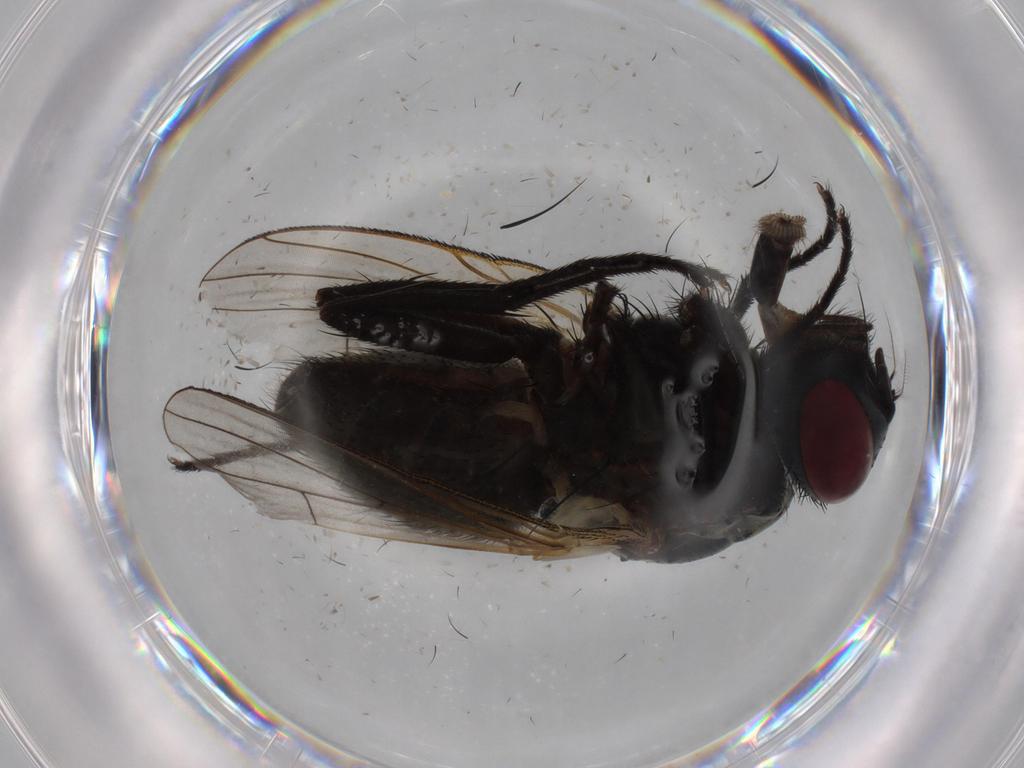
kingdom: Animalia
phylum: Arthropoda
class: Insecta
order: Diptera
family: Muscidae
